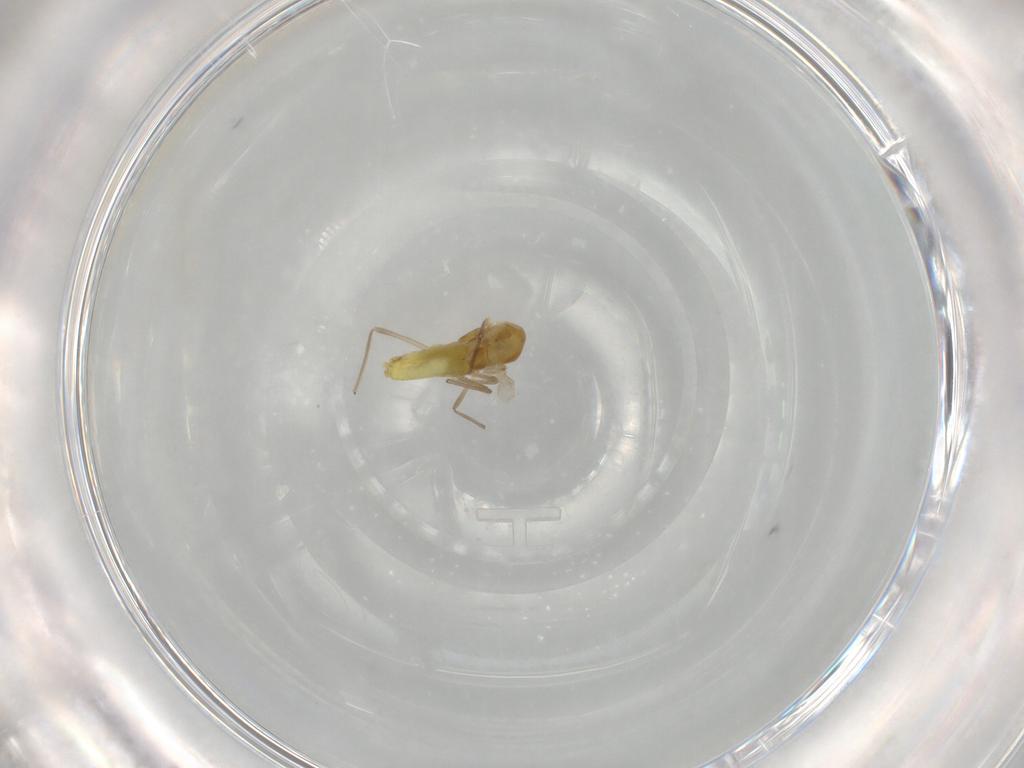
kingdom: Animalia
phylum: Arthropoda
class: Insecta
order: Diptera
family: Chironomidae
